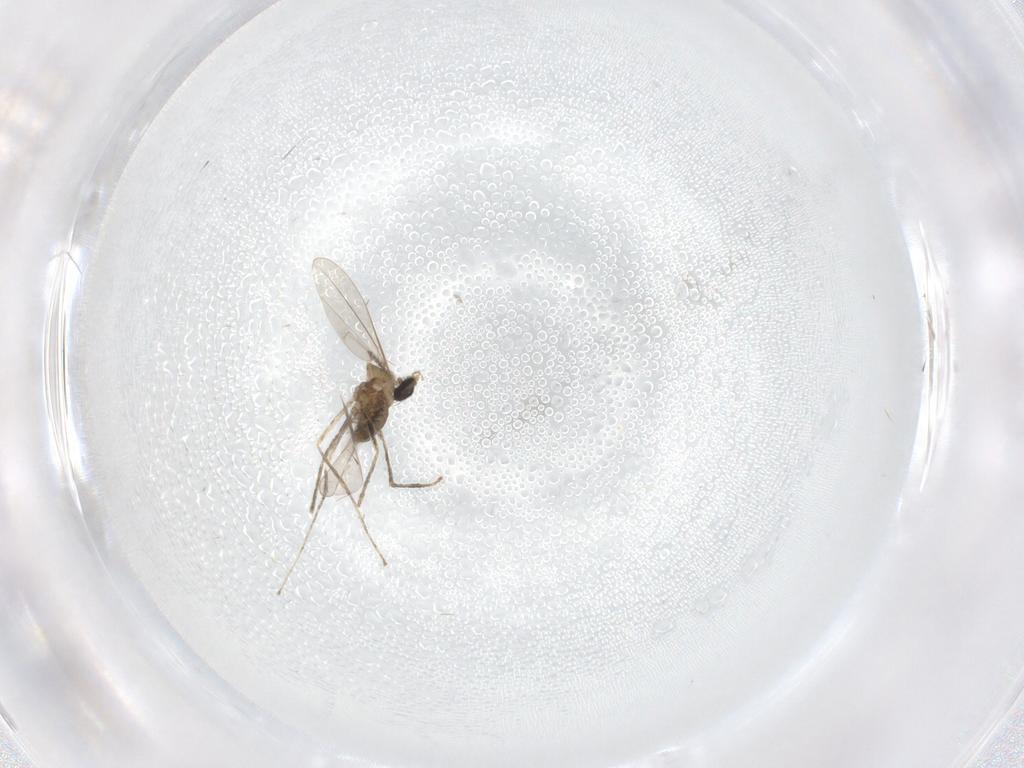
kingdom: Animalia
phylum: Arthropoda
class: Insecta
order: Diptera
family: Cecidomyiidae
